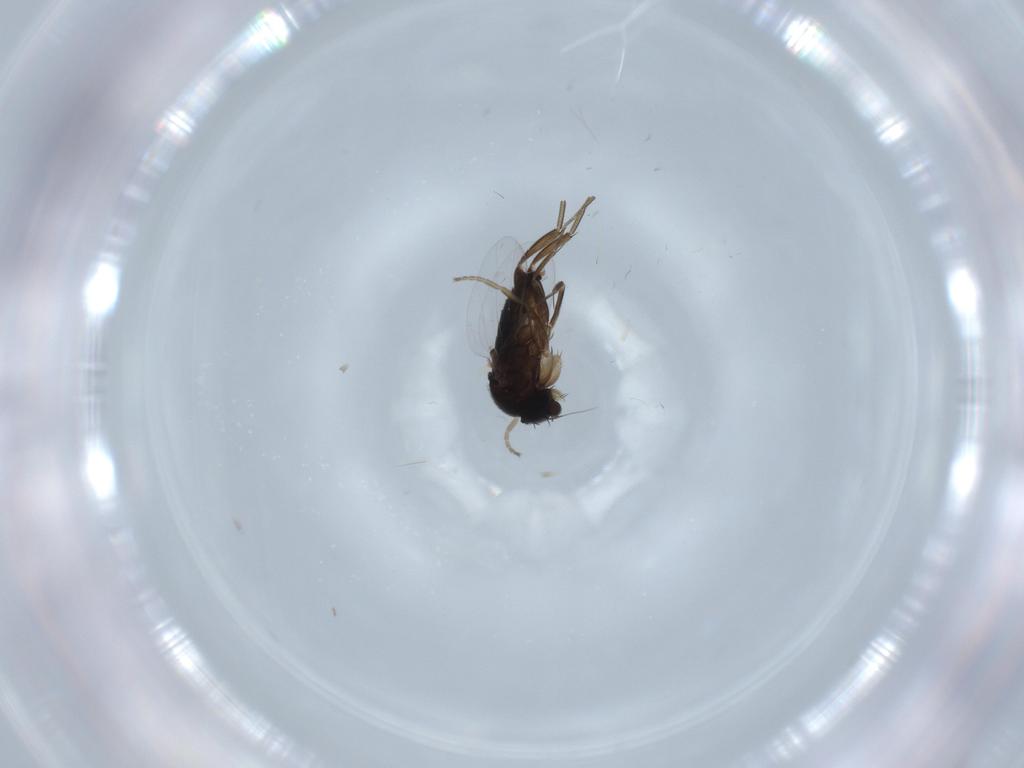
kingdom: Animalia
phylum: Arthropoda
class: Insecta
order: Diptera
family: Phoridae
